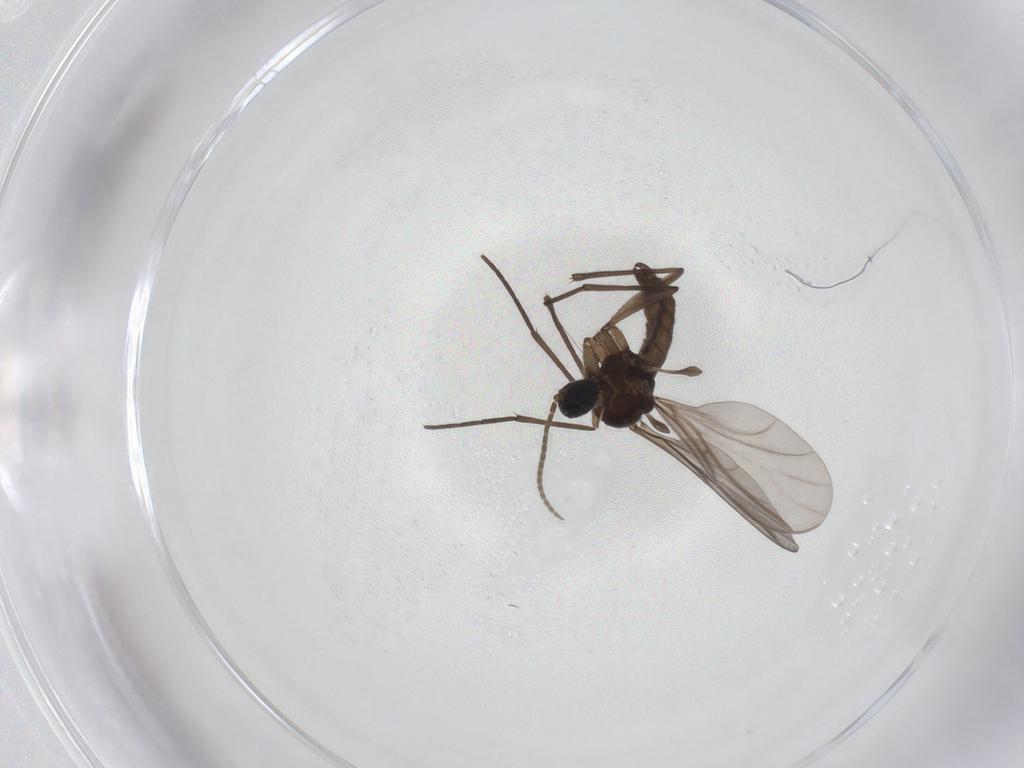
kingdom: Animalia
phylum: Arthropoda
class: Insecta
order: Diptera
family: Sciaridae
